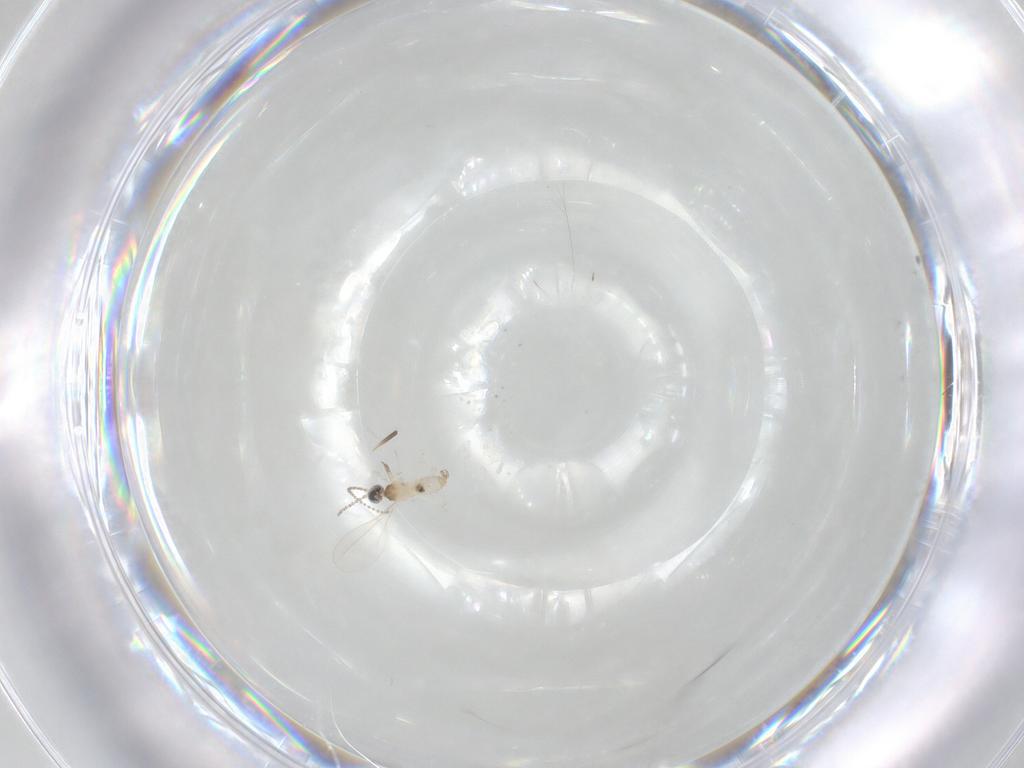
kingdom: Animalia
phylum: Arthropoda
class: Insecta
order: Diptera
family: Cecidomyiidae
